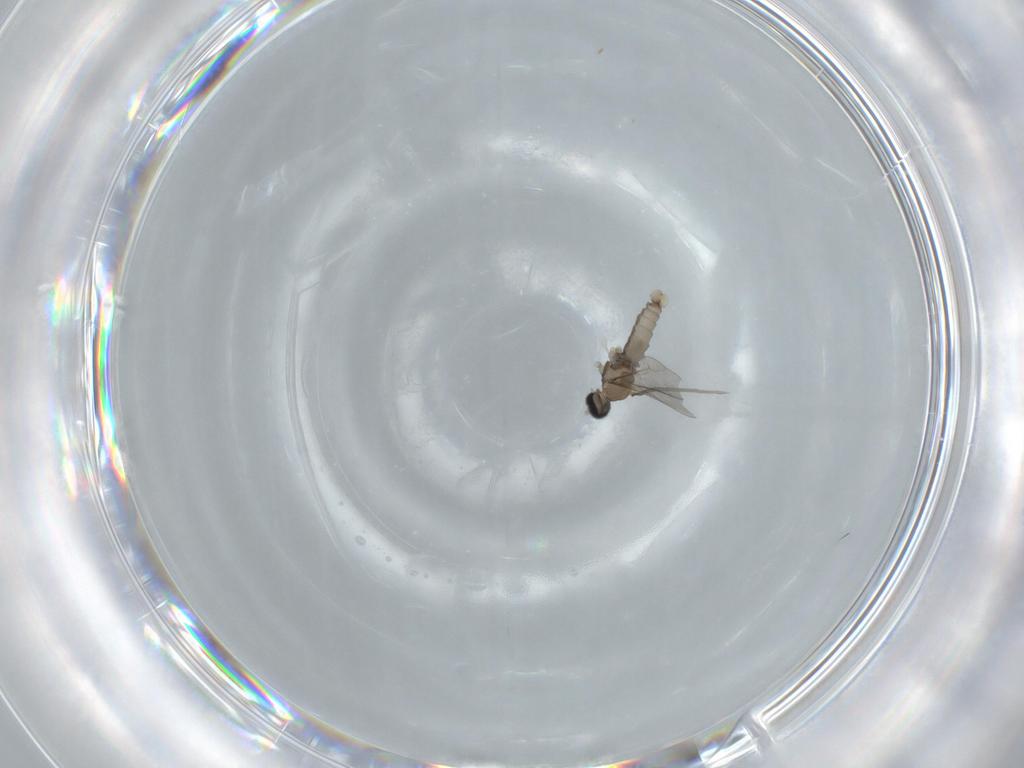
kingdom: Animalia
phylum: Arthropoda
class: Insecta
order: Diptera
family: Cecidomyiidae
